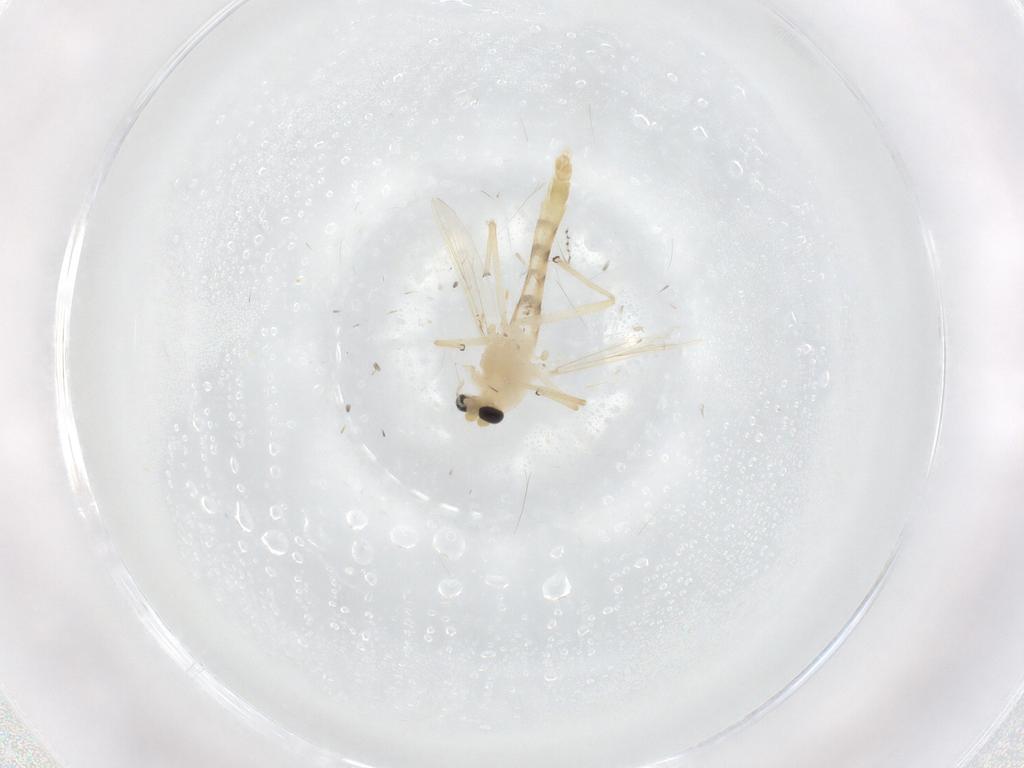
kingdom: Animalia
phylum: Arthropoda
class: Insecta
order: Diptera
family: Chironomidae
